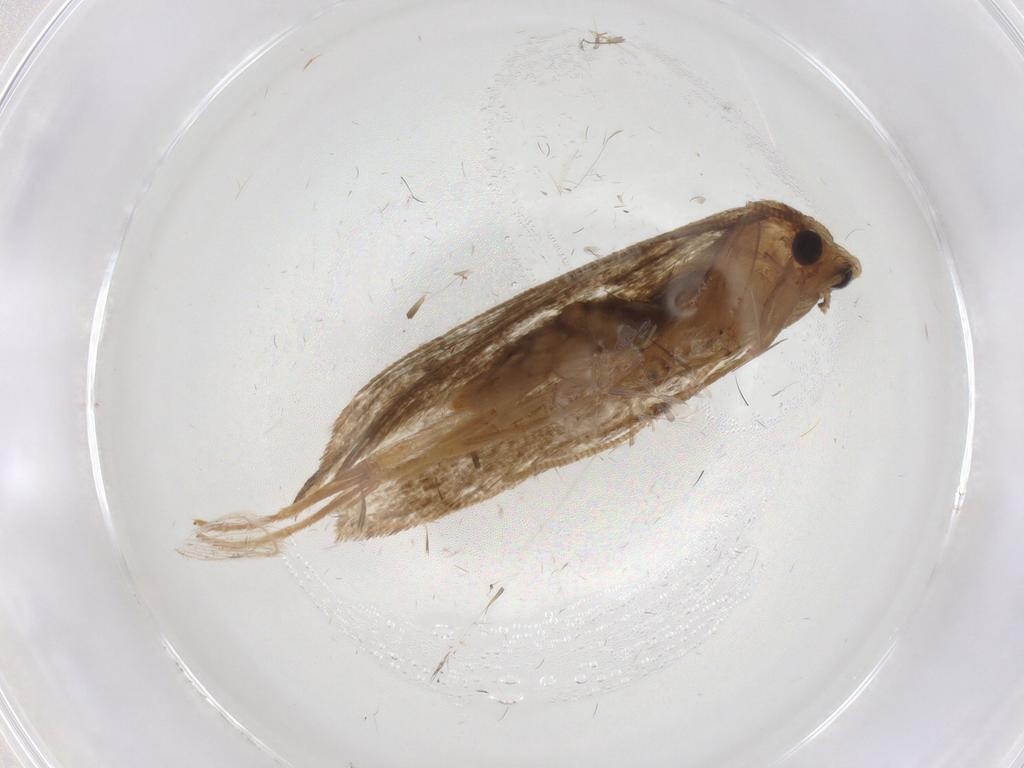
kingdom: Animalia
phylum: Arthropoda
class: Insecta
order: Lepidoptera
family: Noctuidae
